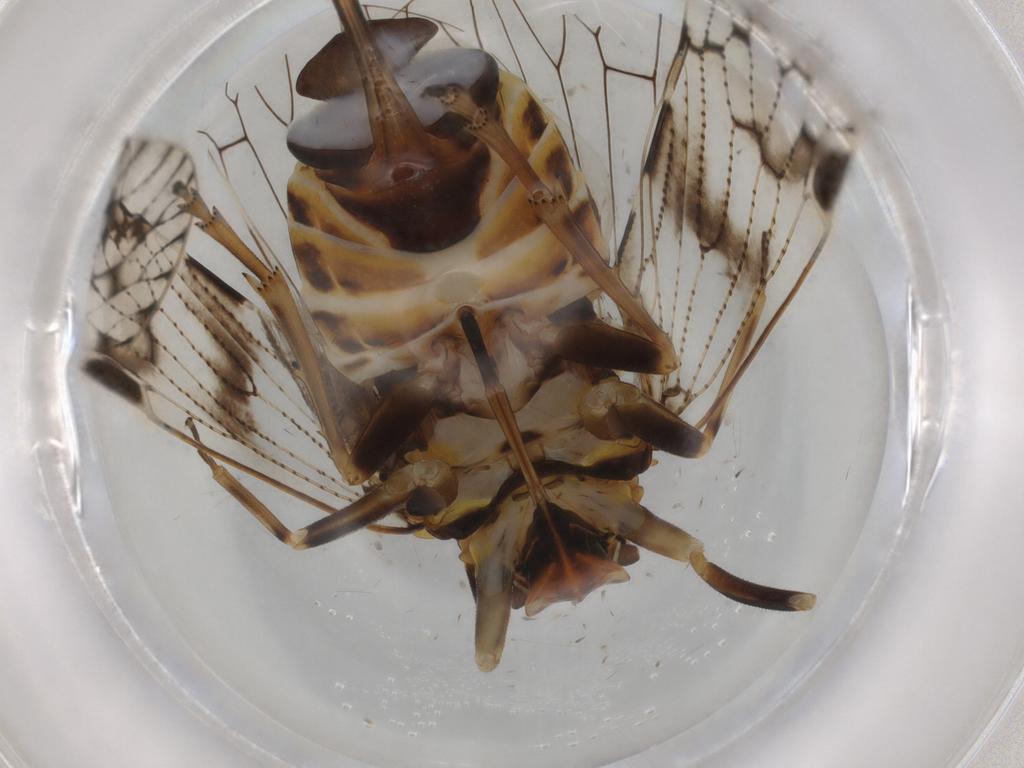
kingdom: Animalia
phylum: Arthropoda
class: Insecta
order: Hemiptera
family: Cixiidae
